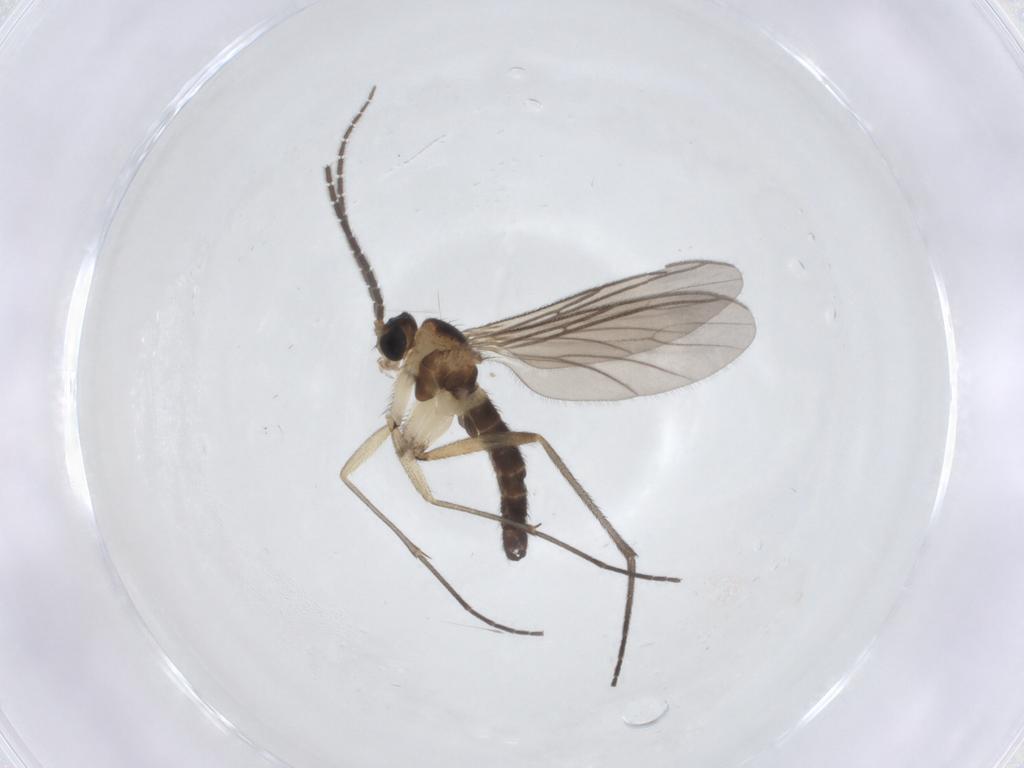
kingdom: Animalia
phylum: Arthropoda
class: Insecta
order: Diptera
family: Sciaridae
